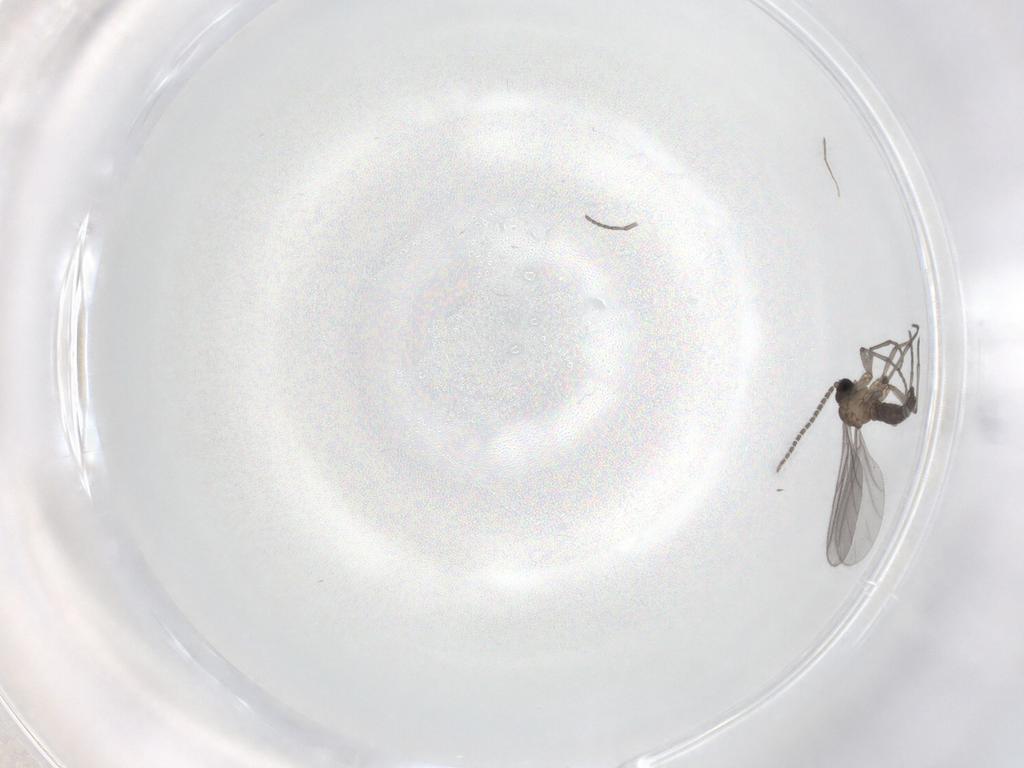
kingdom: Animalia
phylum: Arthropoda
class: Insecta
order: Diptera
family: Sciaridae
